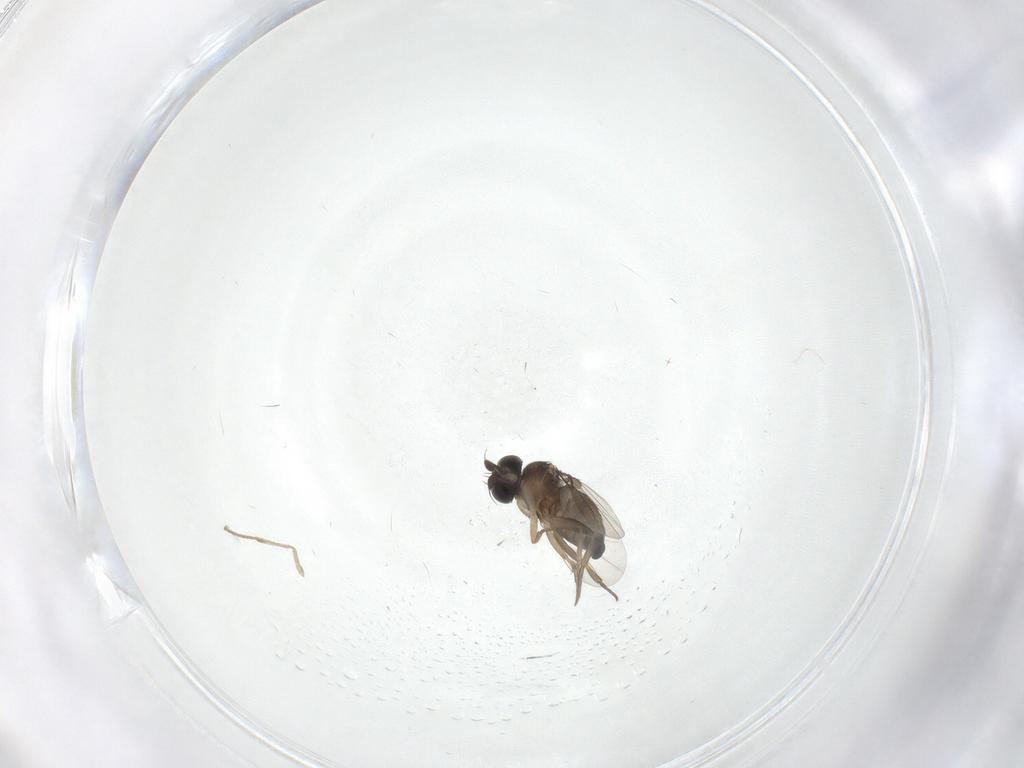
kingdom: Animalia
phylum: Arthropoda
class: Insecta
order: Diptera
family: Phoridae
